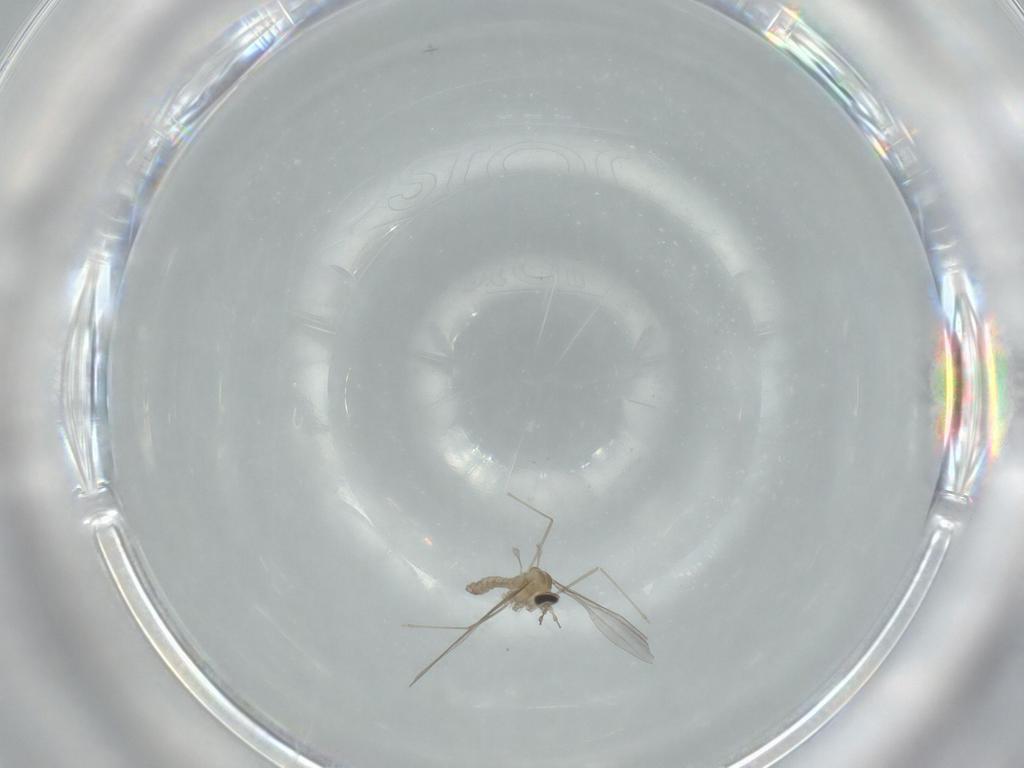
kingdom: Animalia
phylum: Arthropoda
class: Insecta
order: Diptera
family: Cecidomyiidae
